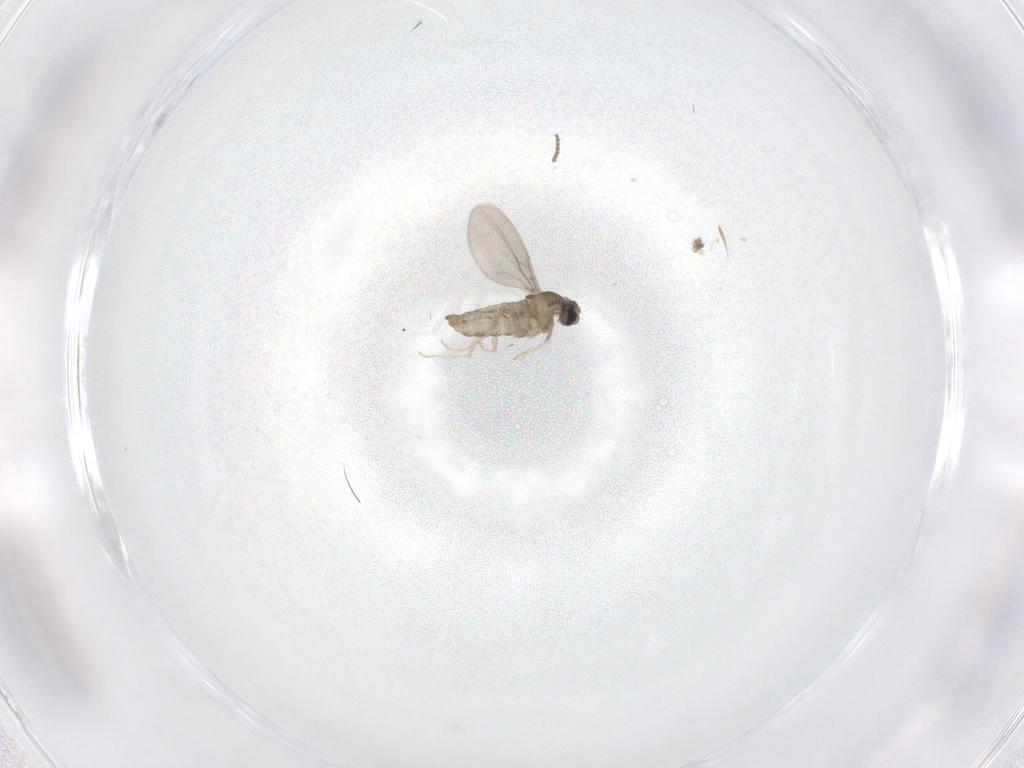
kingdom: Animalia
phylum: Arthropoda
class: Insecta
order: Diptera
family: Cecidomyiidae
